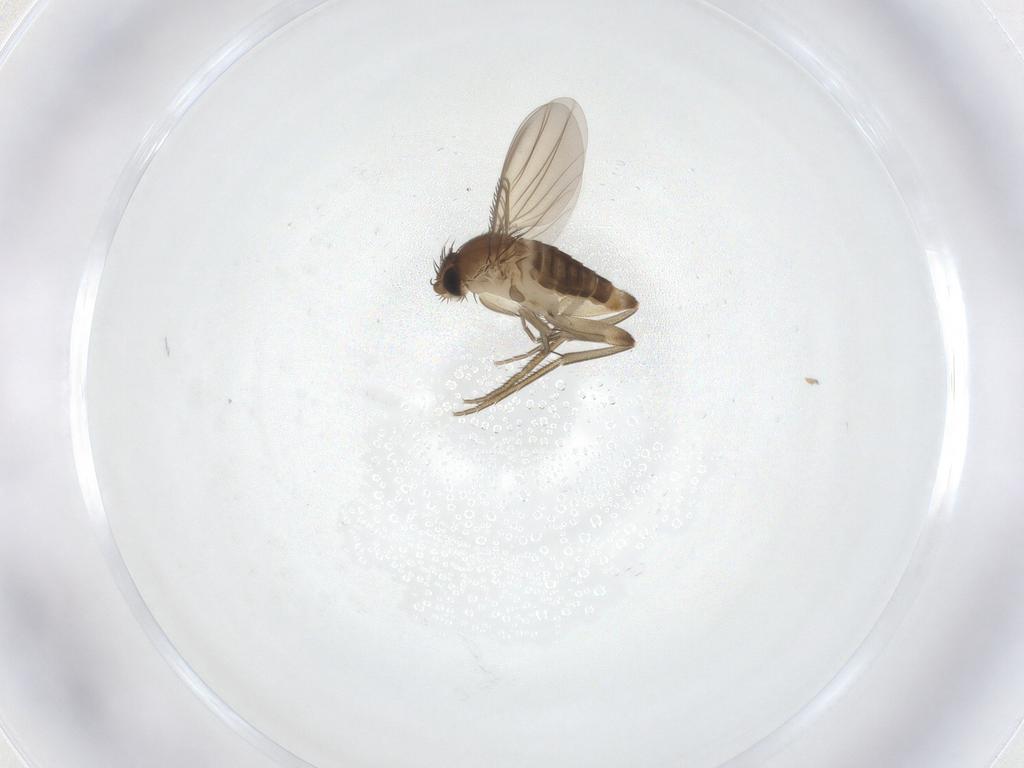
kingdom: Animalia
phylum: Arthropoda
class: Insecta
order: Diptera
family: Phoridae
